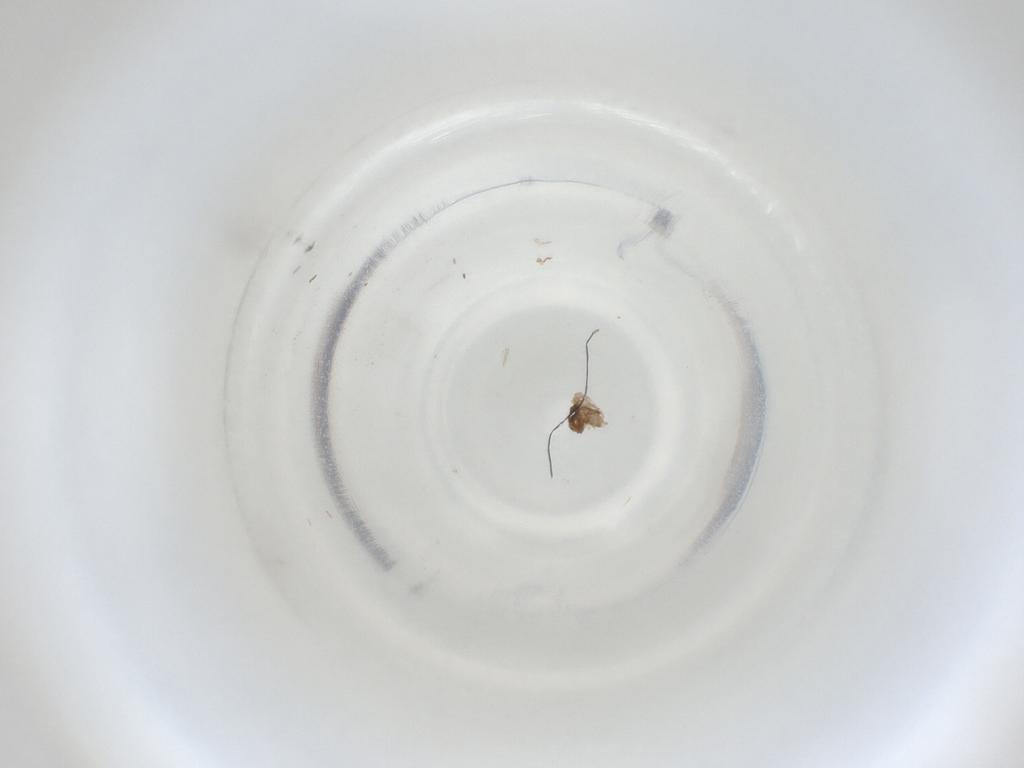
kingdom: Animalia
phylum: Arthropoda
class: Insecta
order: Diptera
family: Cecidomyiidae
